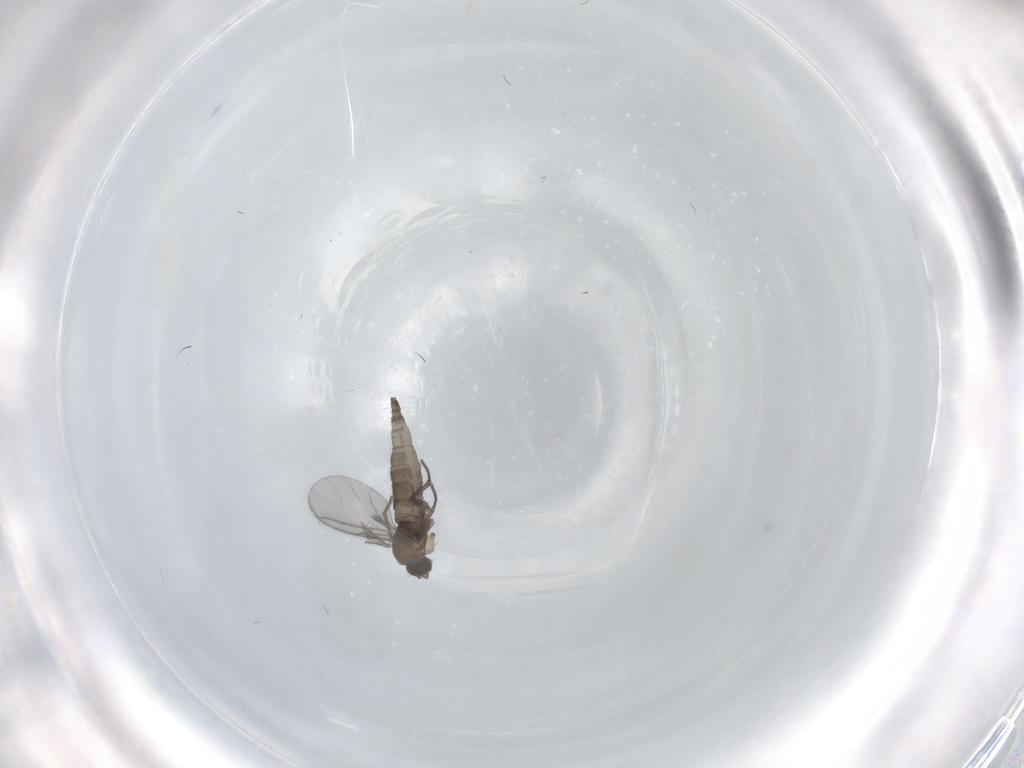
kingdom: Animalia
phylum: Arthropoda
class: Insecta
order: Diptera
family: Sciaridae
